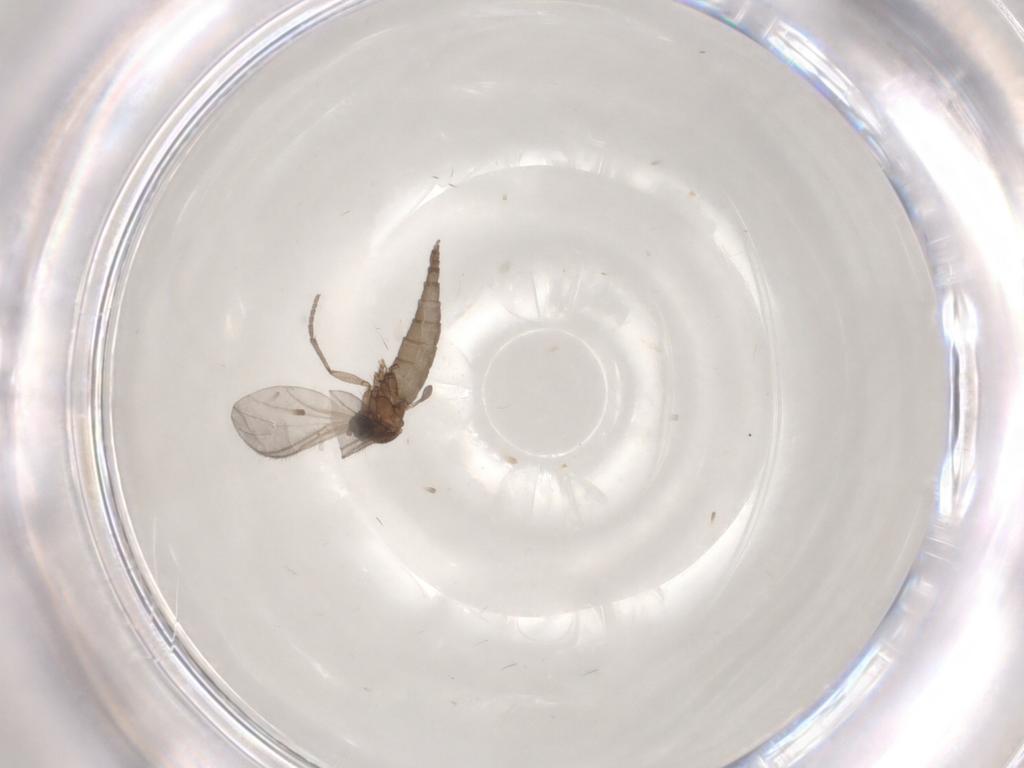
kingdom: Animalia
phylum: Arthropoda
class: Insecta
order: Diptera
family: Sciaridae
